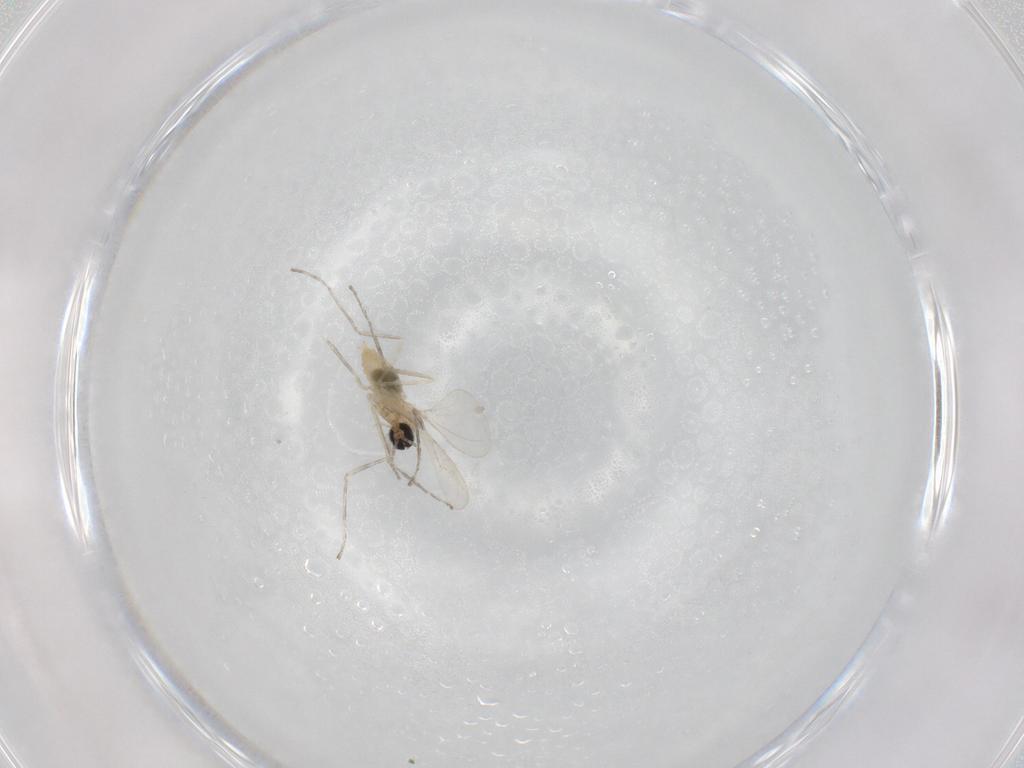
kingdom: Animalia
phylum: Arthropoda
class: Insecta
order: Diptera
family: Cecidomyiidae
